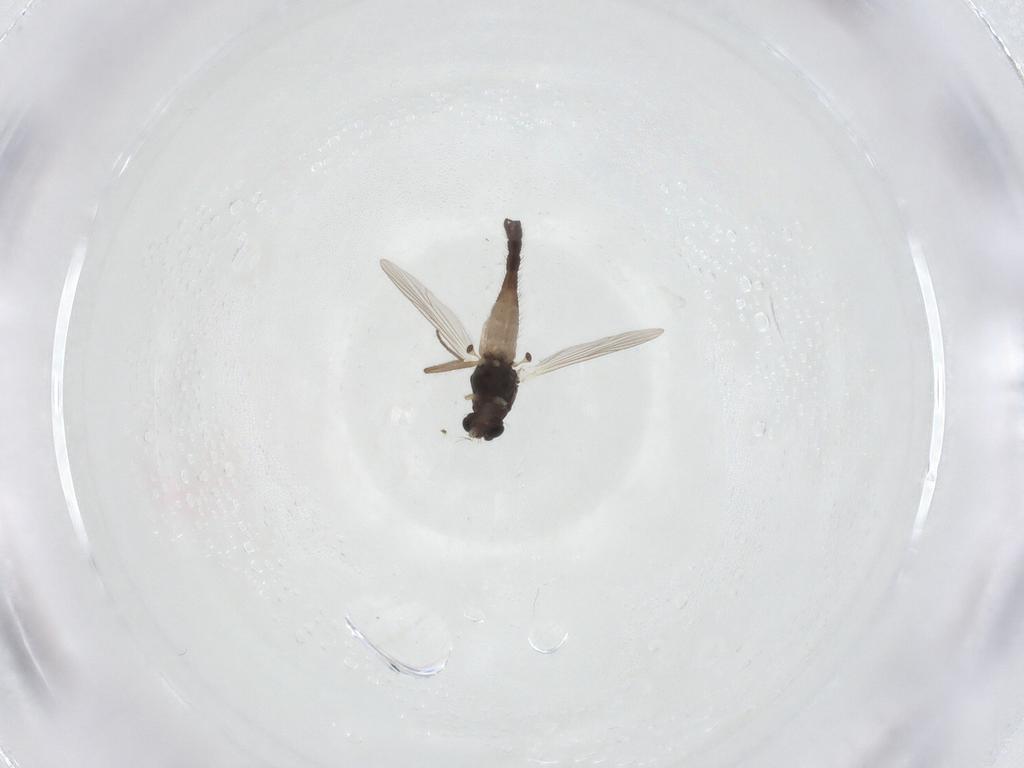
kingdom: Animalia
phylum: Arthropoda
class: Insecta
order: Diptera
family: Chironomidae
